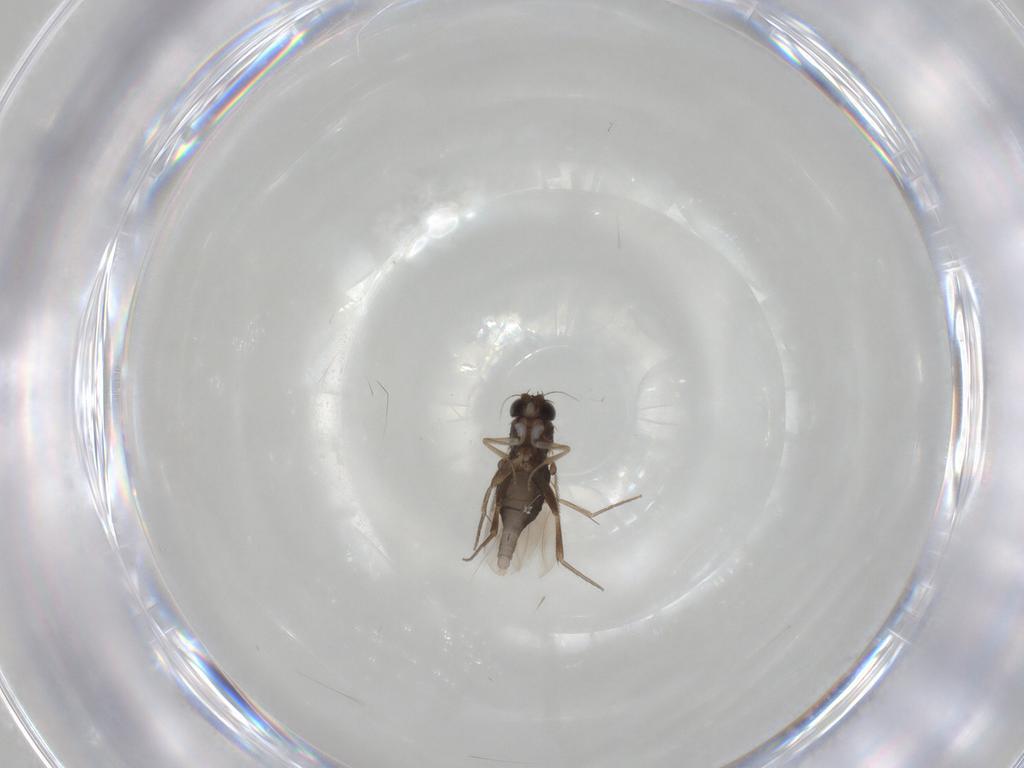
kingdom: Animalia
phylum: Arthropoda
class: Insecta
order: Diptera
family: Phoridae
